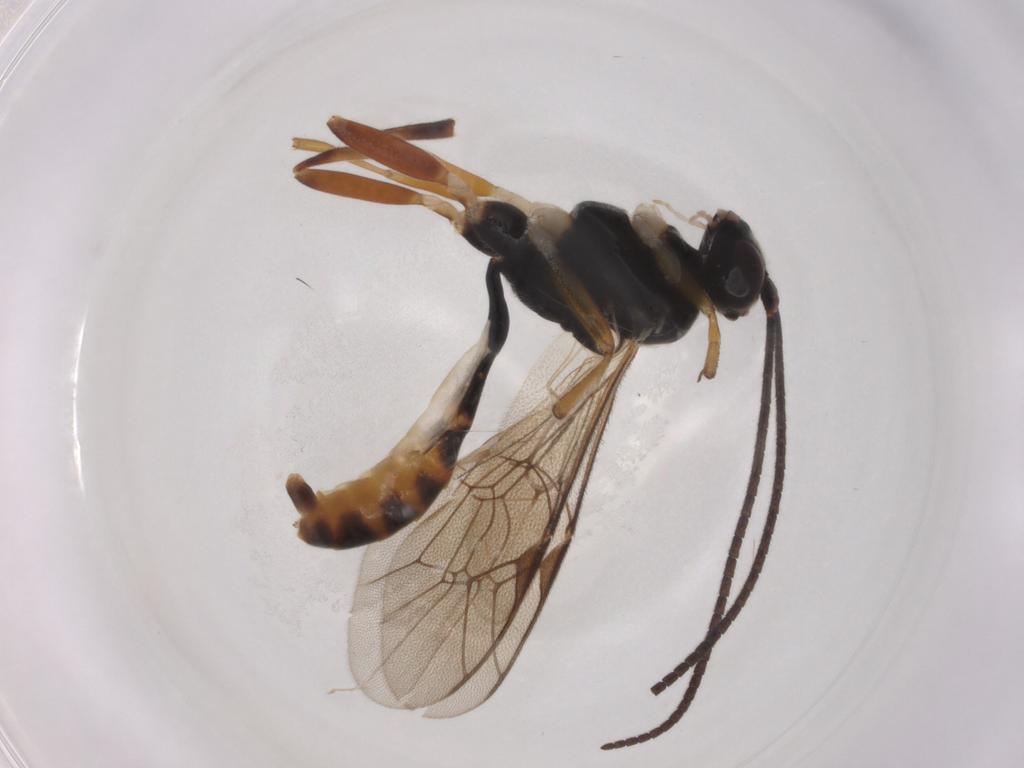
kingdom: Animalia
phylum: Arthropoda
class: Insecta
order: Hymenoptera
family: Ichneumonidae
